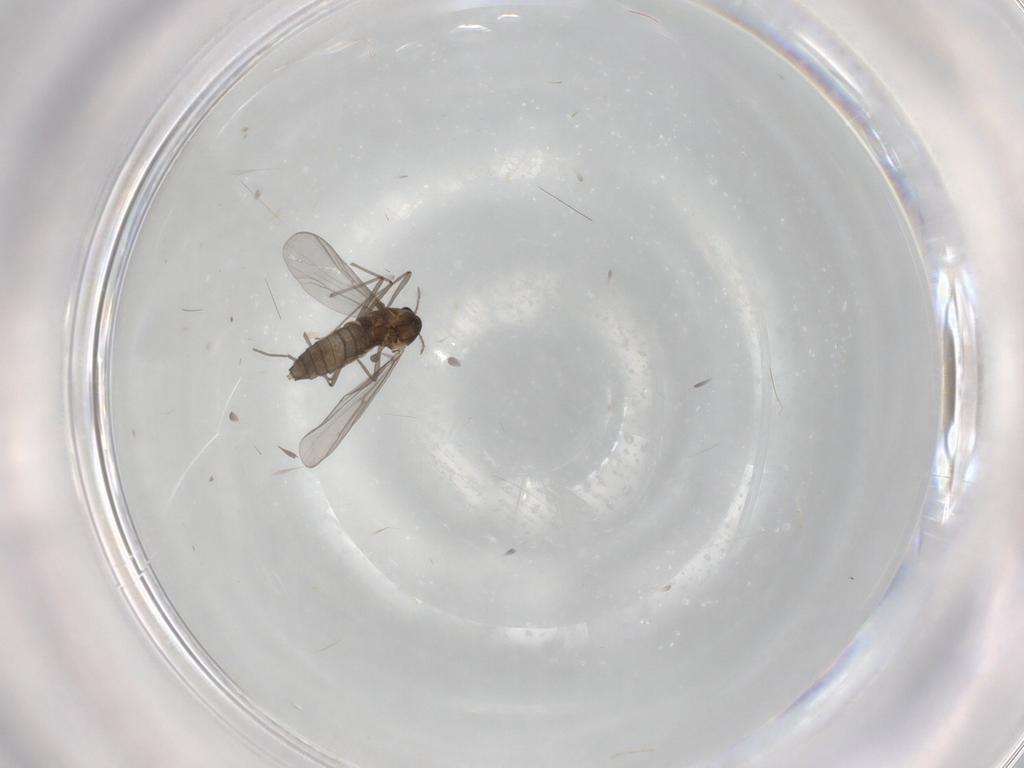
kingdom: Animalia
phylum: Arthropoda
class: Insecta
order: Diptera
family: Chironomidae
